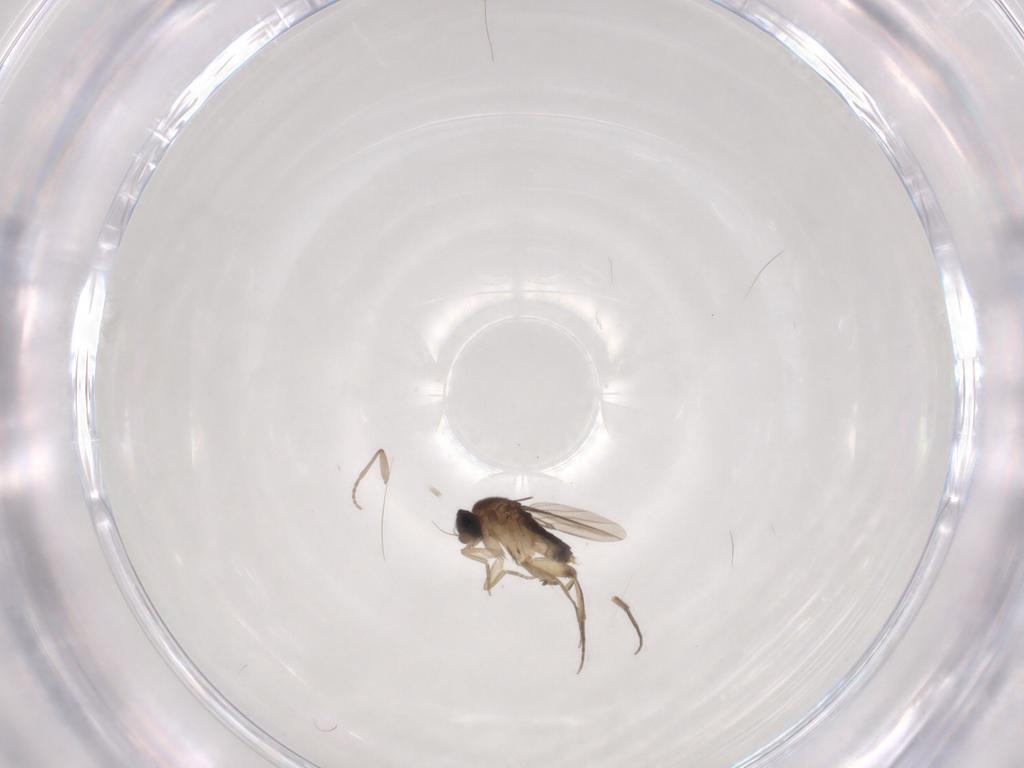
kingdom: Animalia
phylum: Arthropoda
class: Insecta
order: Diptera
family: Phoridae
